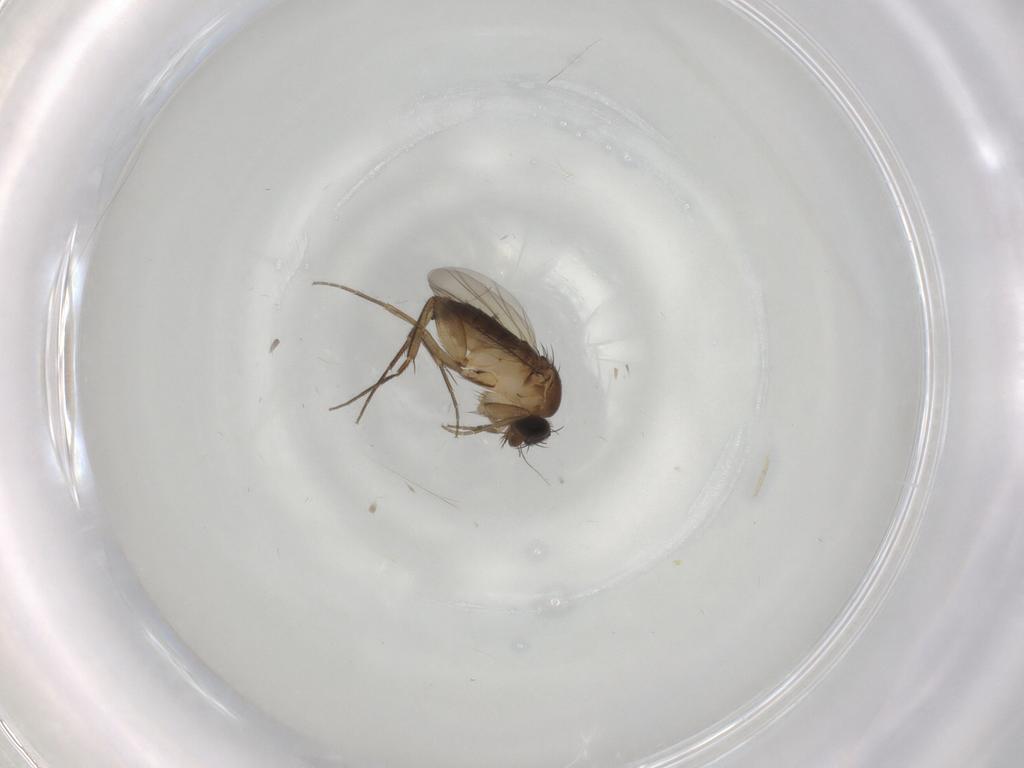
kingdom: Animalia
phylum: Arthropoda
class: Insecta
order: Diptera
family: Phoridae
